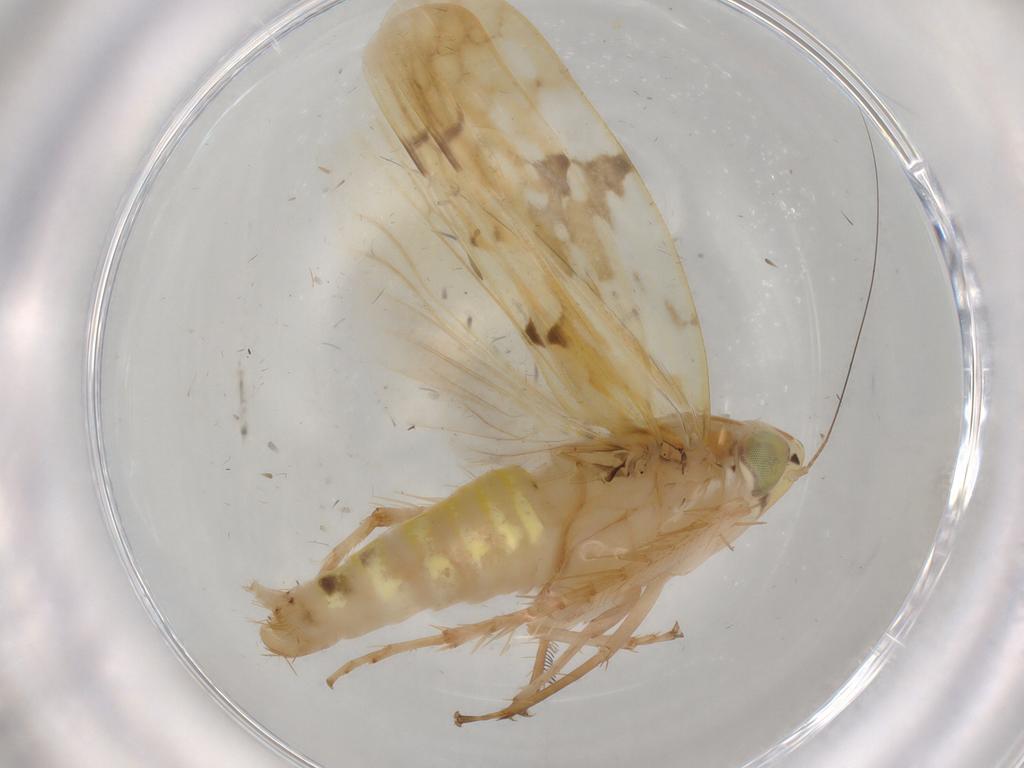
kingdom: Animalia
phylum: Arthropoda
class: Insecta
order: Hemiptera
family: Cicadellidae
